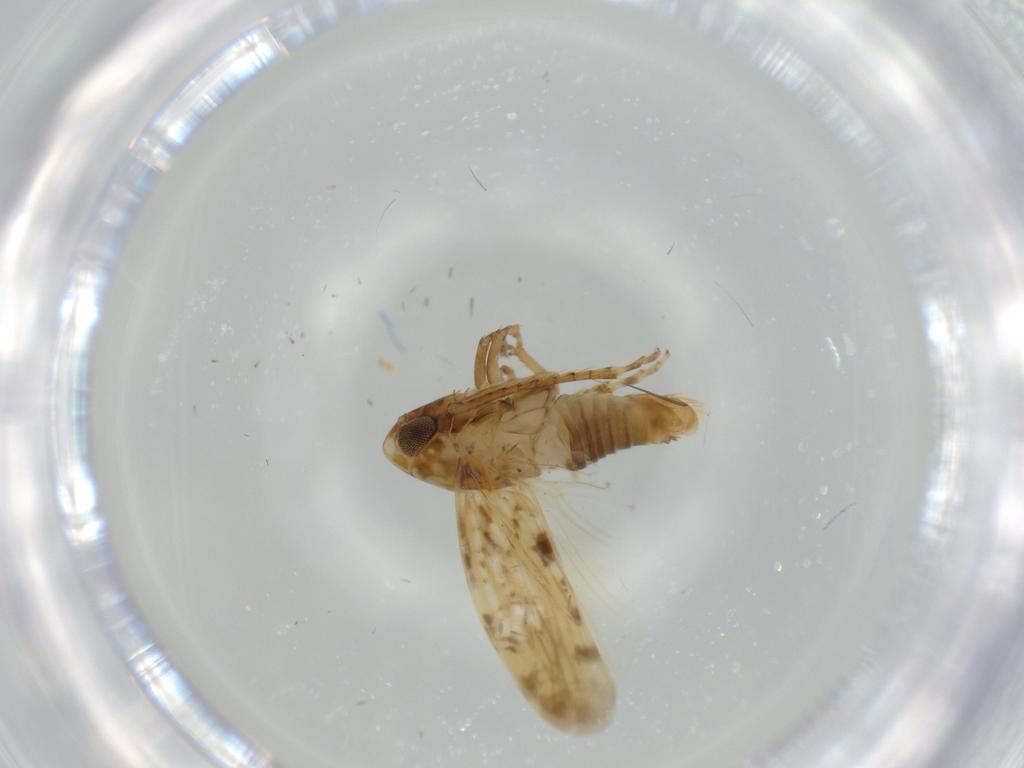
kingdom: Animalia
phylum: Arthropoda
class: Insecta
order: Hemiptera
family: Cicadellidae
